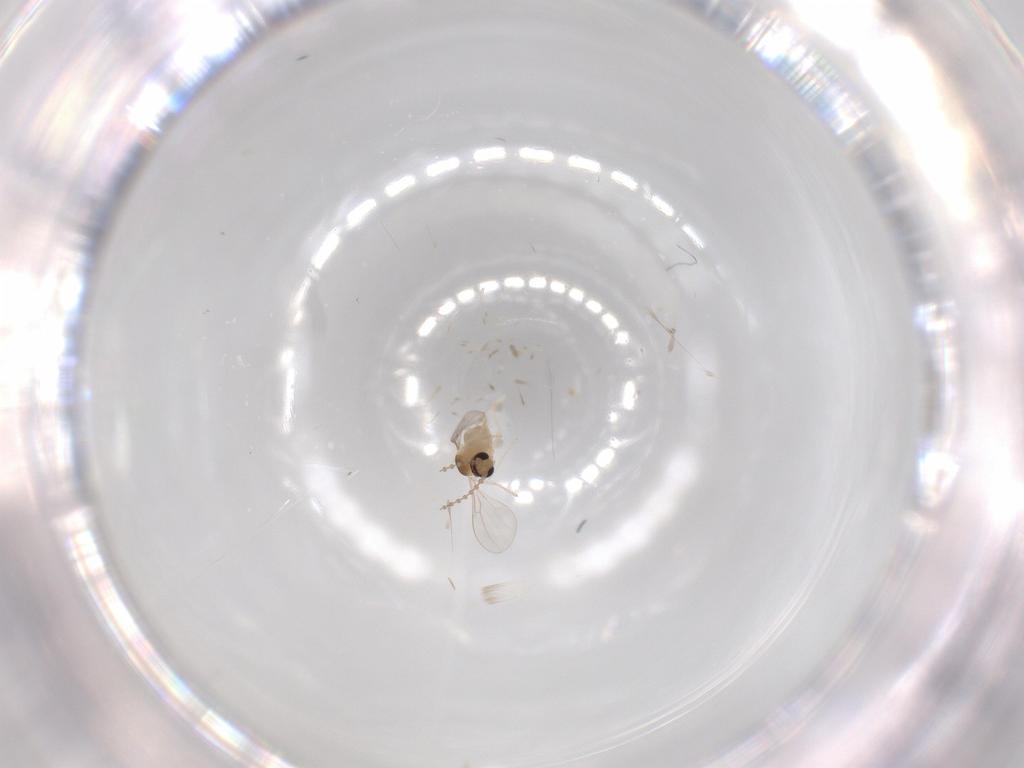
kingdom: Animalia
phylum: Arthropoda
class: Insecta
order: Diptera
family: Cecidomyiidae
